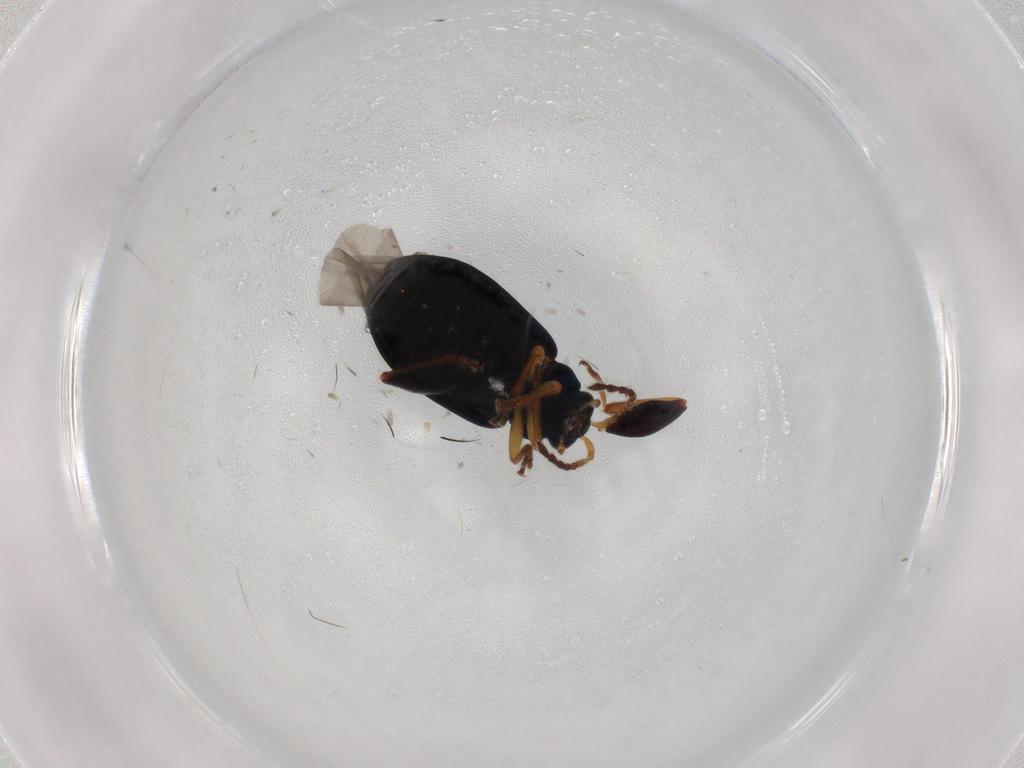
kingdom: Animalia
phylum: Arthropoda
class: Insecta
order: Coleoptera
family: Chrysomelidae
